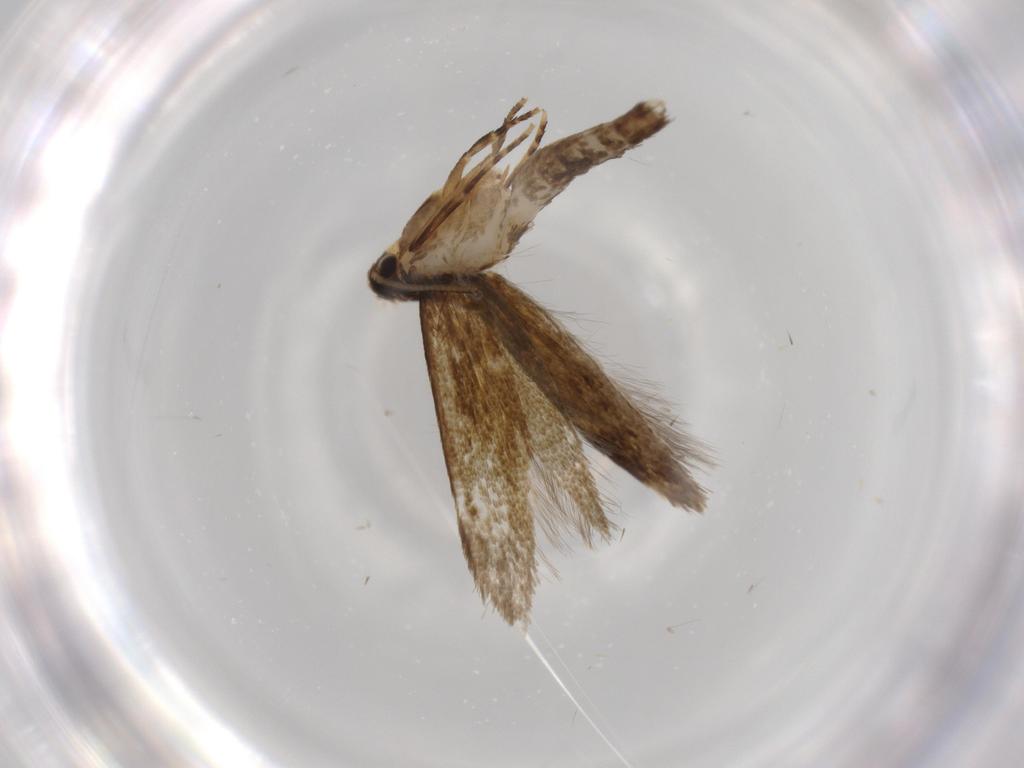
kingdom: Animalia
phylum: Arthropoda
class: Insecta
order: Lepidoptera
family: Tineidae
